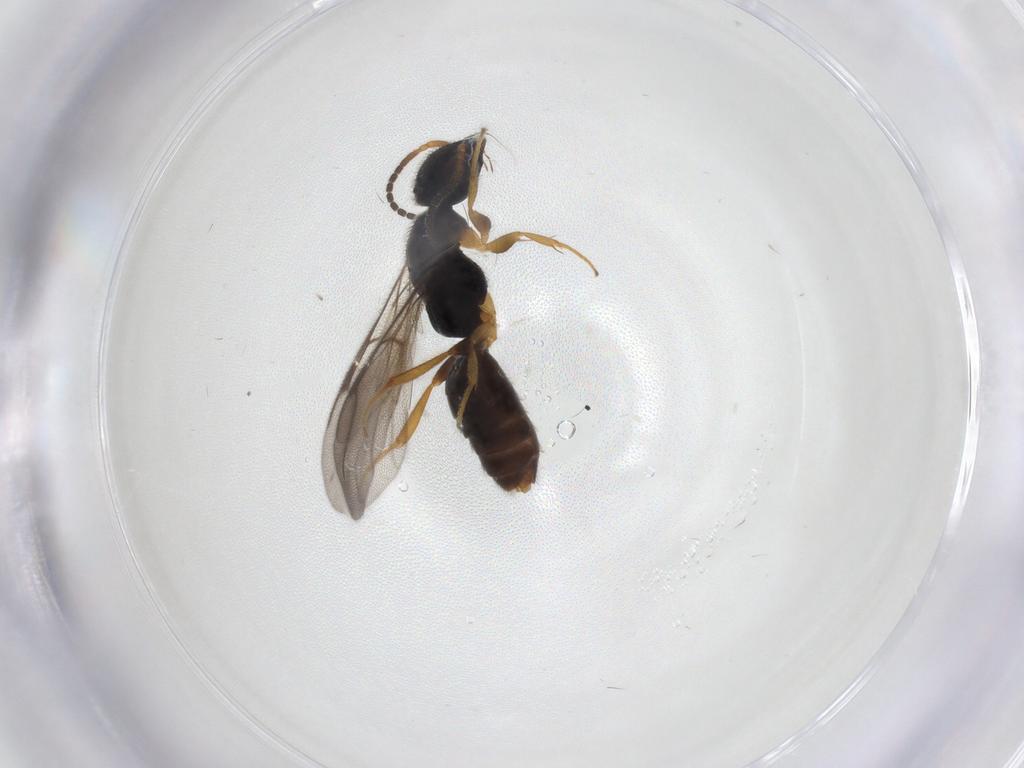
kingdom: Animalia
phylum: Arthropoda
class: Insecta
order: Hymenoptera
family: Bethylidae
